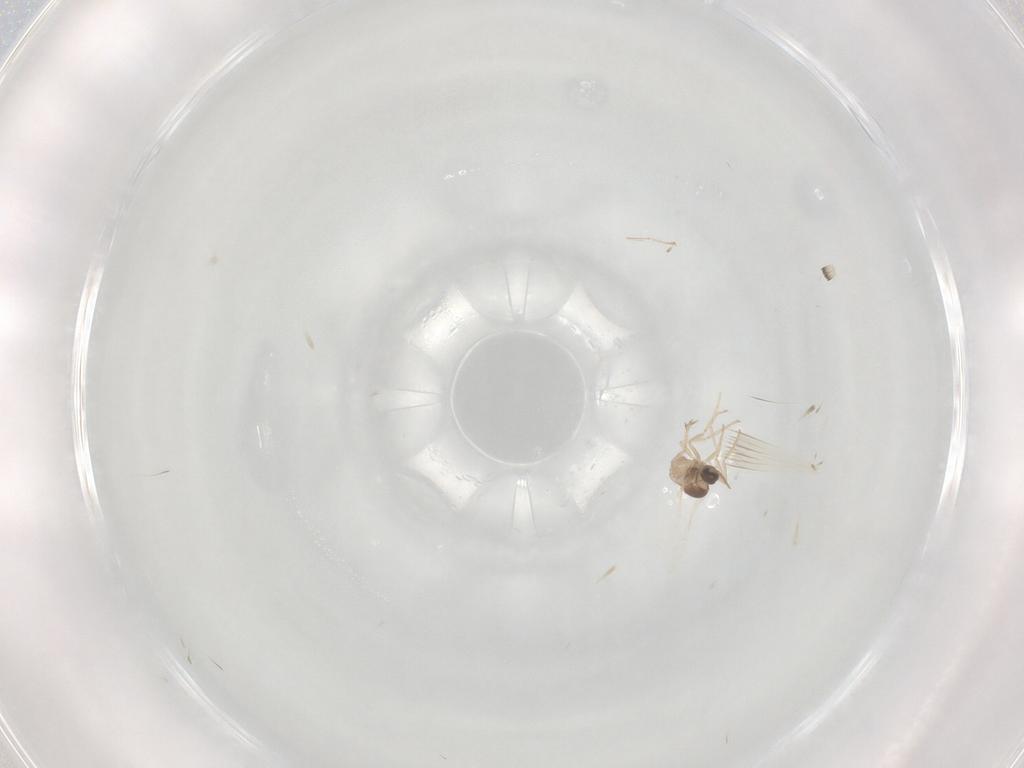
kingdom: Animalia
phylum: Arthropoda
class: Insecta
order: Diptera
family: Cecidomyiidae
